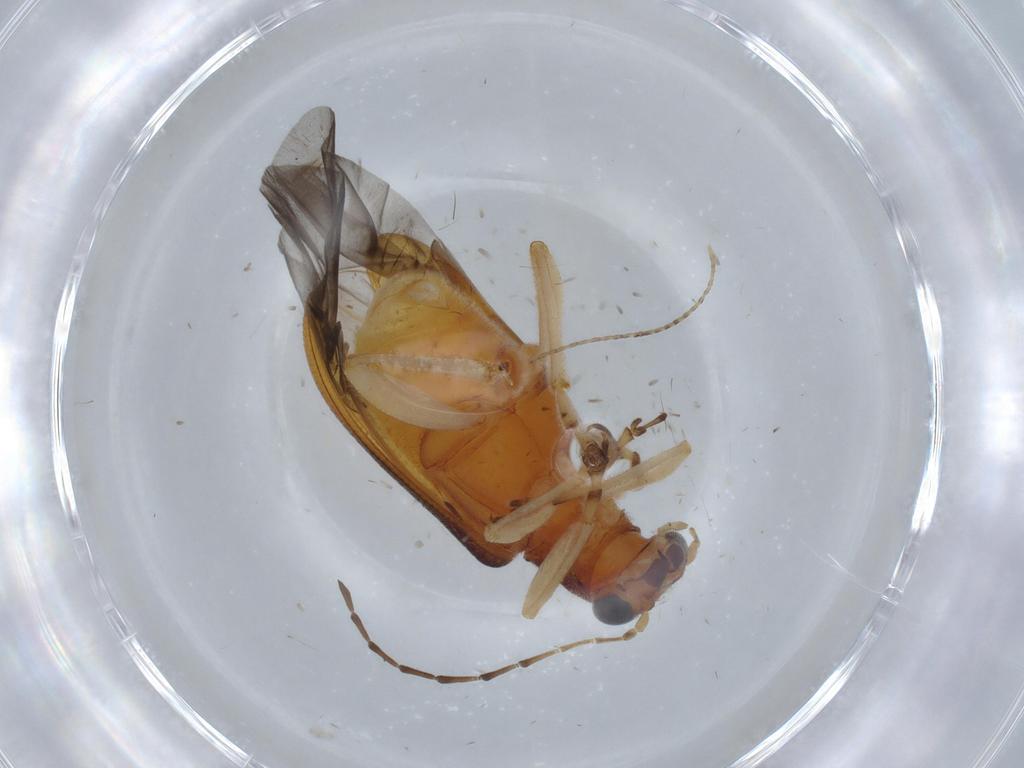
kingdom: Animalia
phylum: Arthropoda
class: Insecta
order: Coleoptera
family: Chrysomelidae
